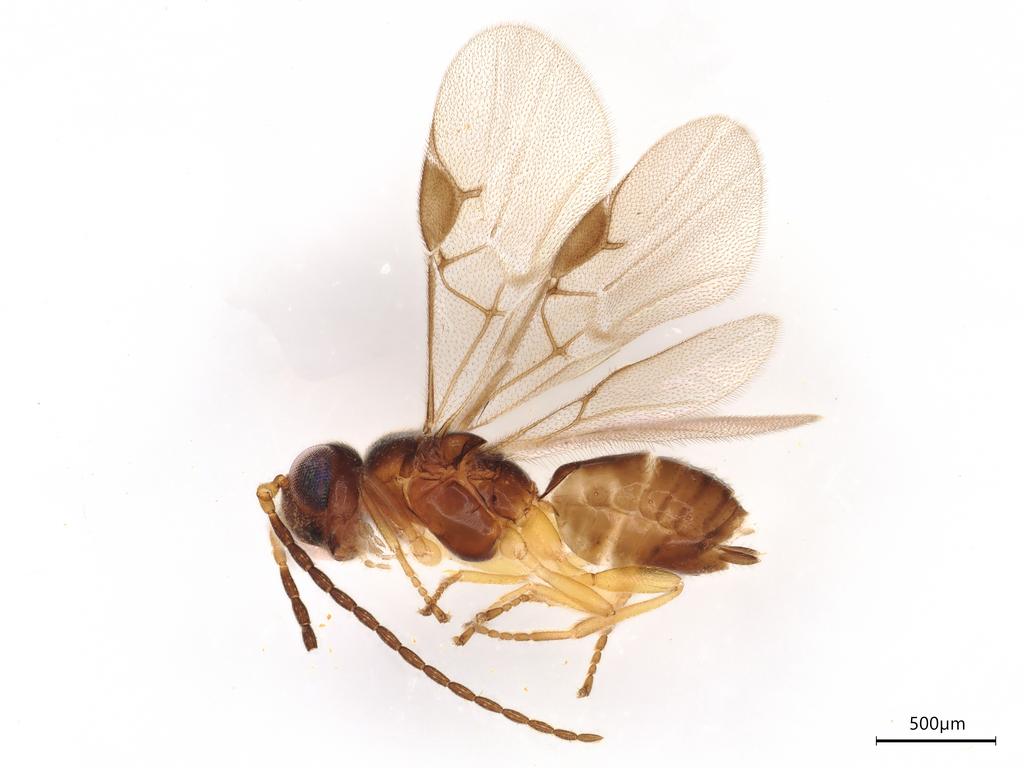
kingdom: Animalia
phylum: Arthropoda
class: Insecta
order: Hymenoptera
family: Braconidae
